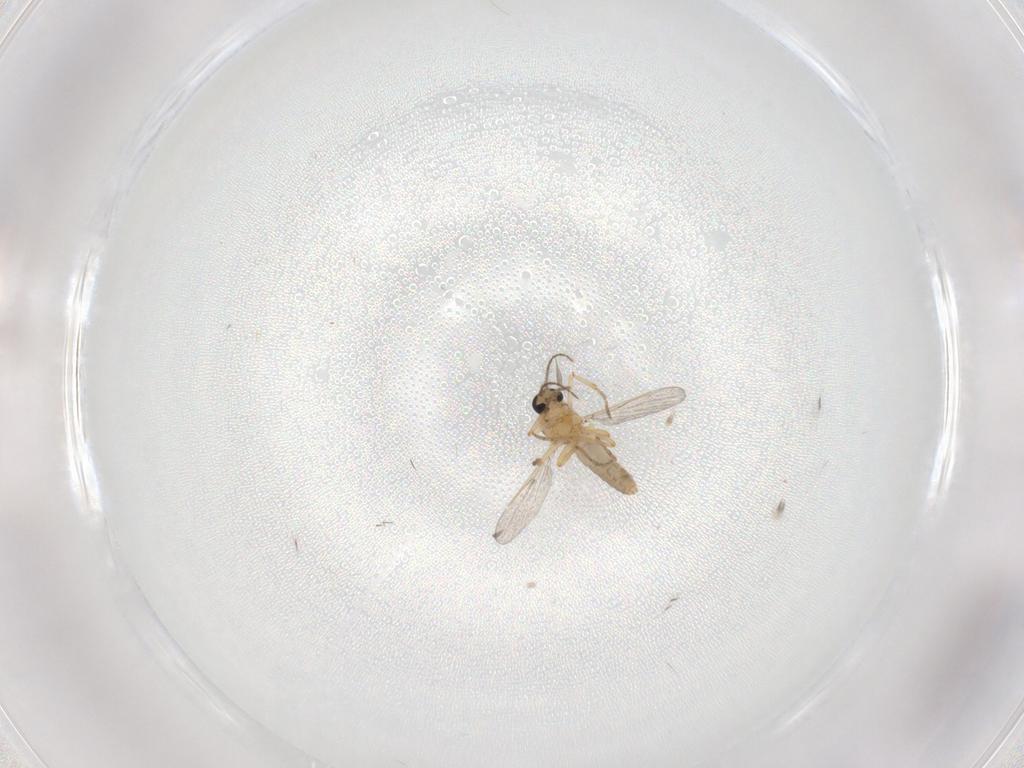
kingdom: Animalia
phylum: Arthropoda
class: Insecta
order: Diptera
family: Ceratopogonidae
